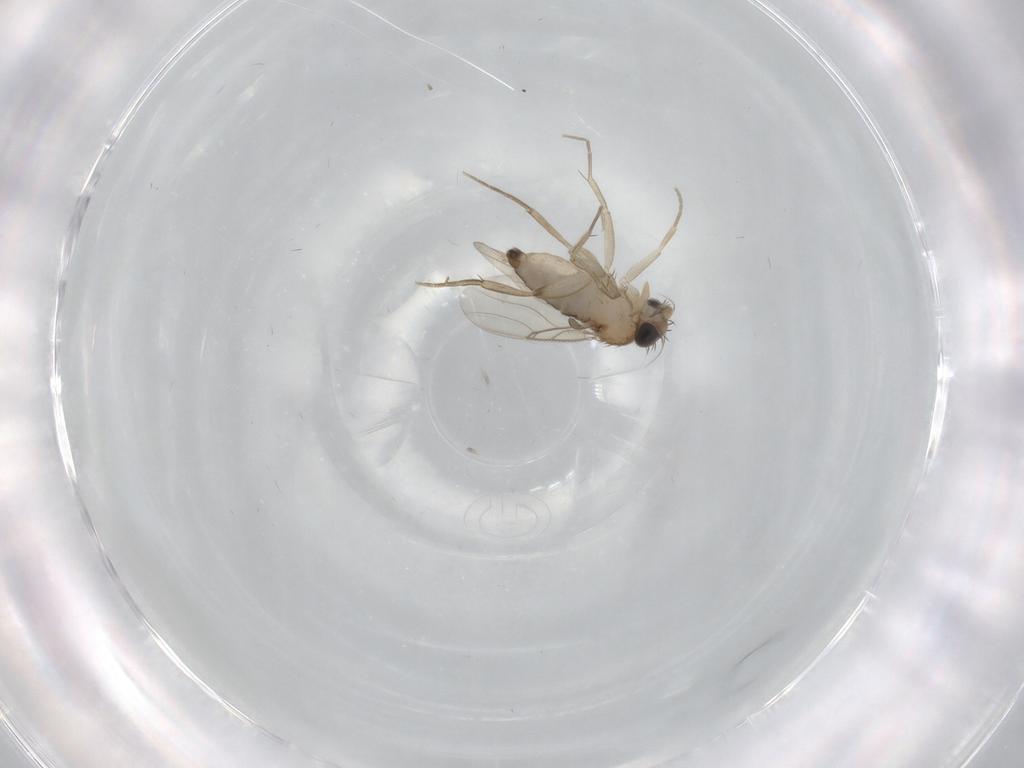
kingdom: Animalia
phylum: Arthropoda
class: Insecta
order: Diptera
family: Phoridae
